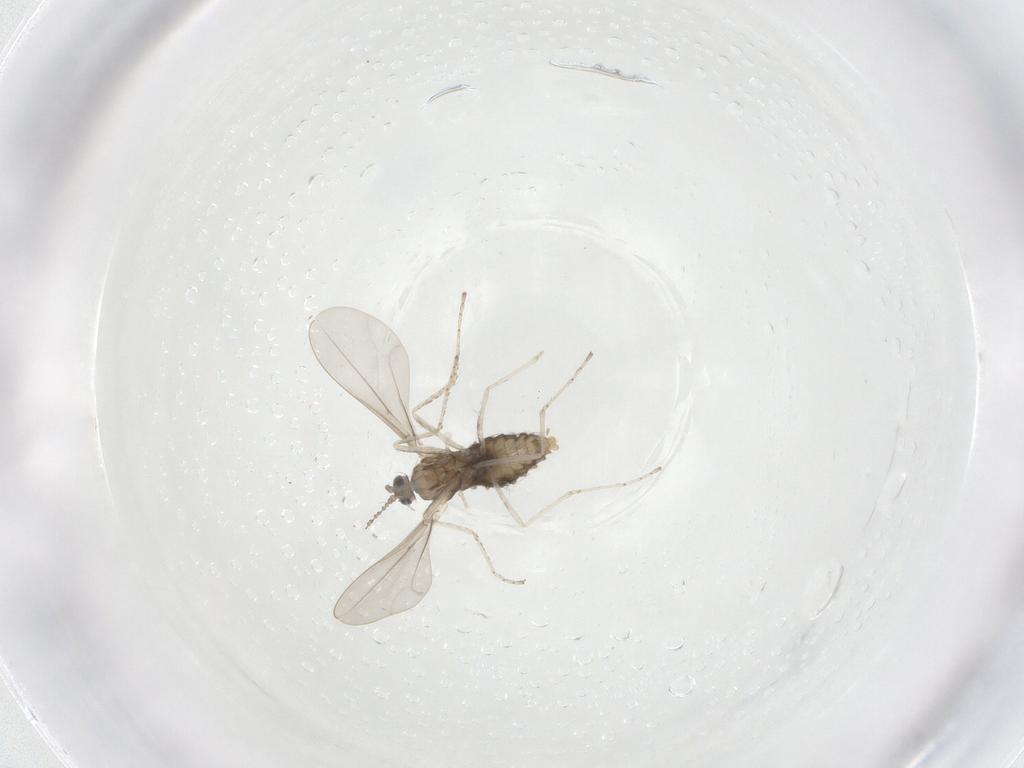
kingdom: Animalia
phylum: Arthropoda
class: Insecta
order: Diptera
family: Cecidomyiidae
